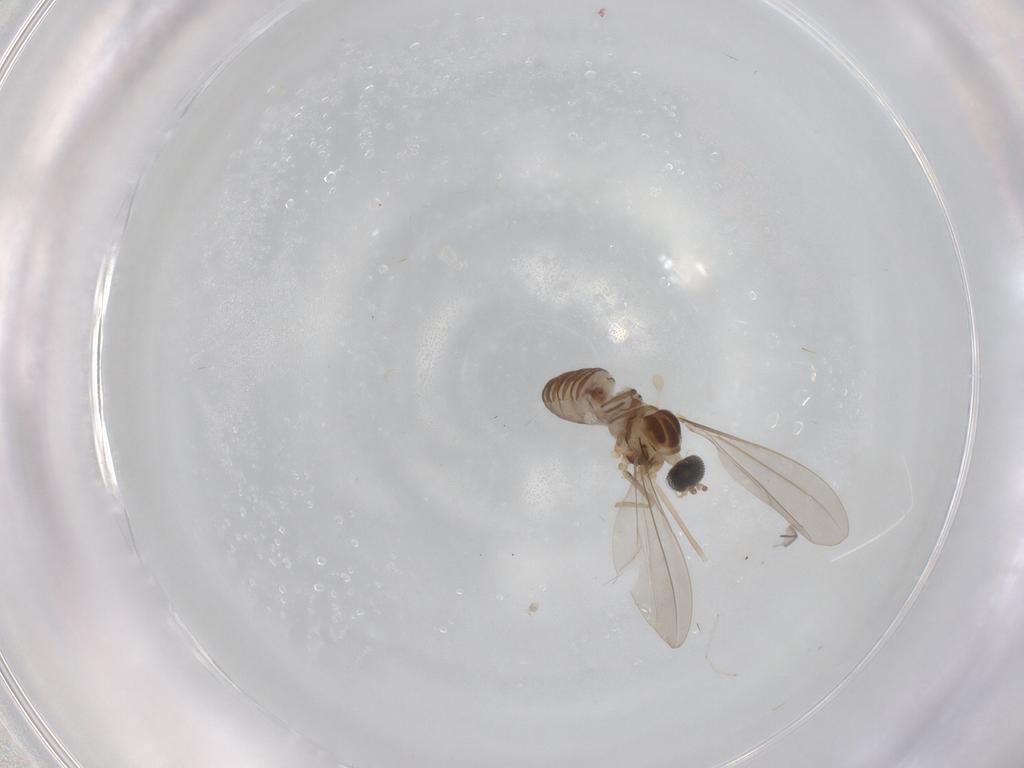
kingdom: Animalia
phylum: Arthropoda
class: Insecta
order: Diptera
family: Cecidomyiidae
